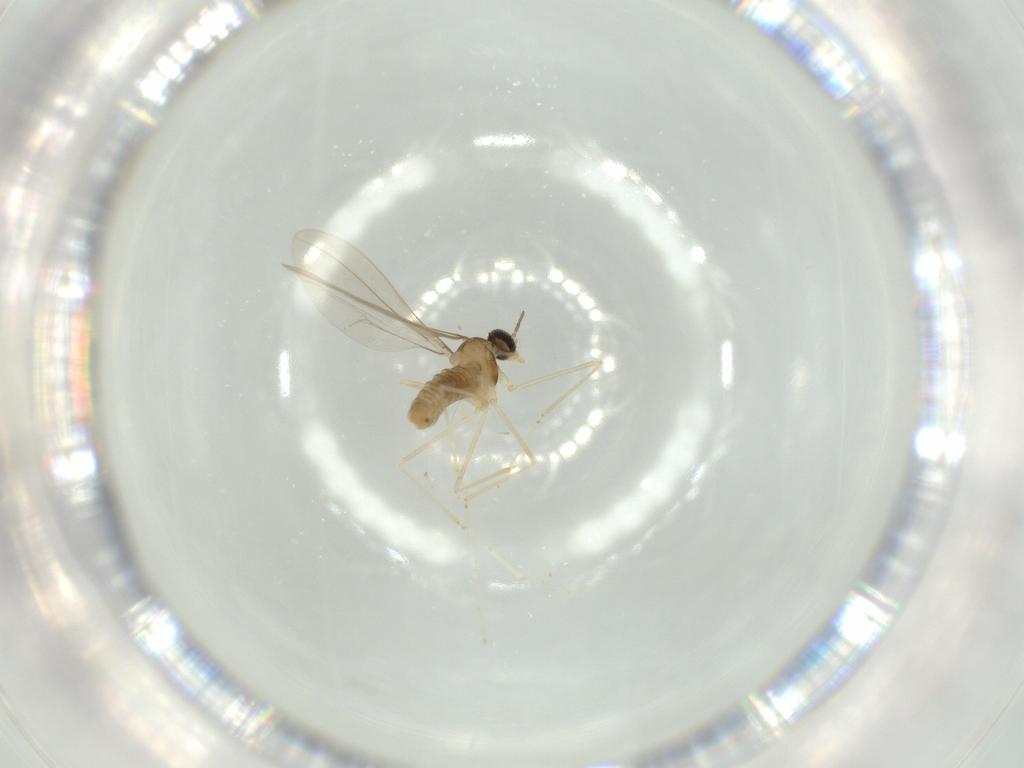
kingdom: Animalia
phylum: Arthropoda
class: Insecta
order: Diptera
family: Cecidomyiidae
